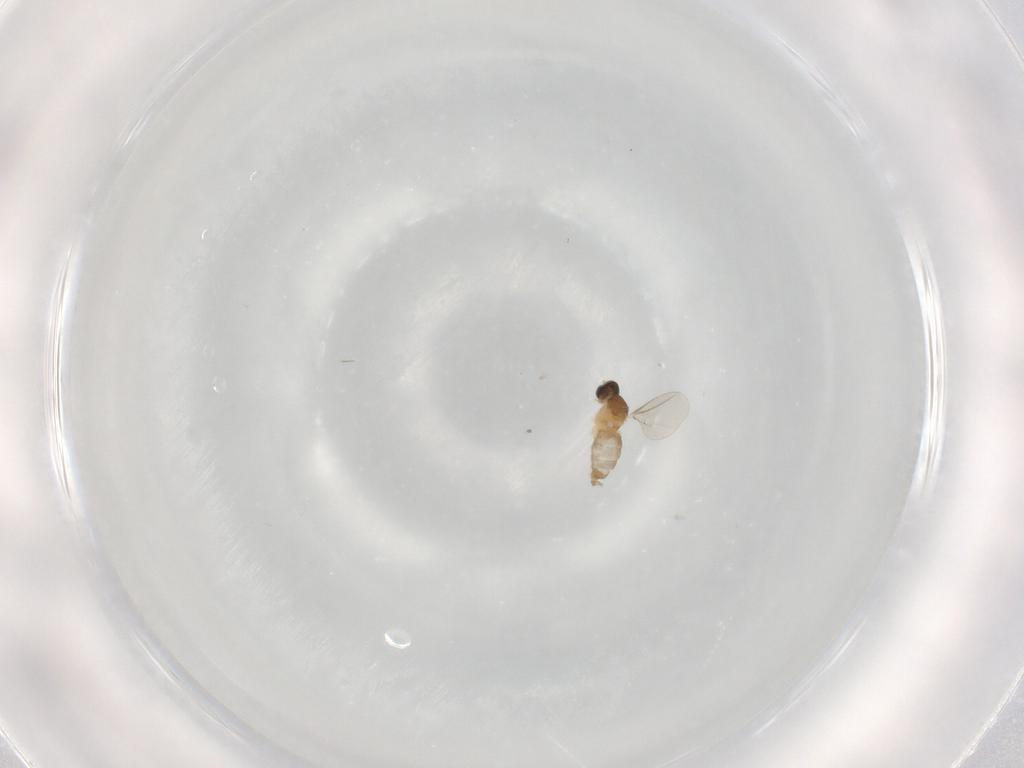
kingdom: Animalia
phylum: Arthropoda
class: Insecta
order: Diptera
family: Cecidomyiidae
